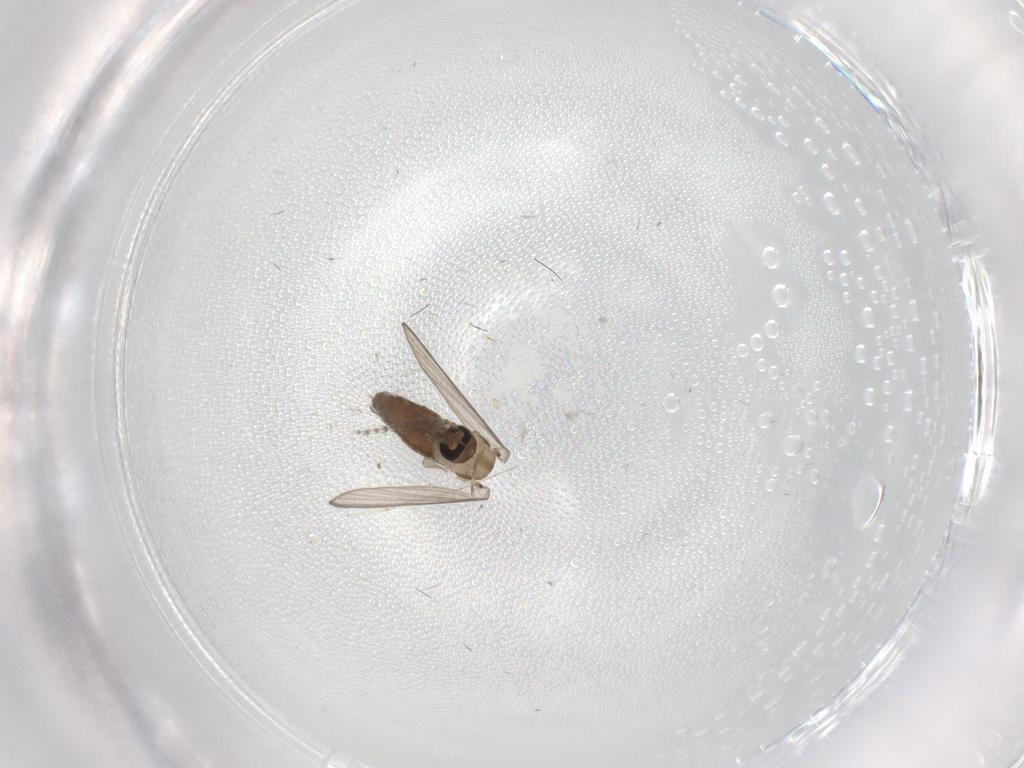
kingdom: Animalia
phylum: Arthropoda
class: Insecta
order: Diptera
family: Psychodidae
